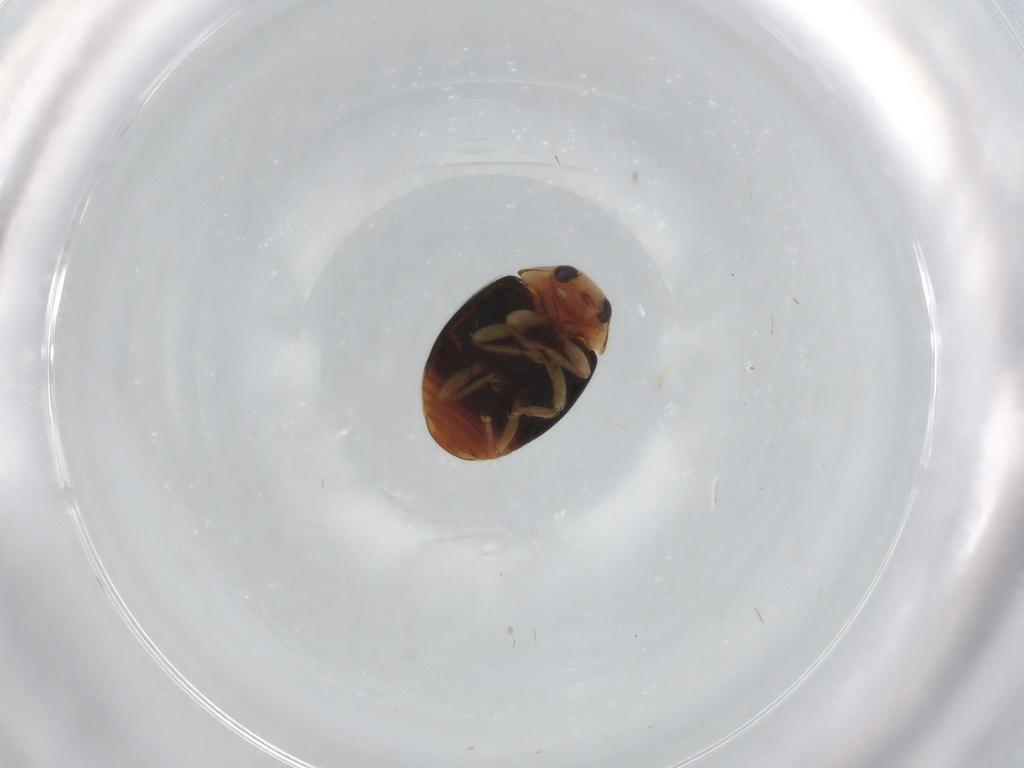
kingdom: Animalia
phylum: Arthropoda
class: Insecta
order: Coleoptera
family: Coccinellidae
